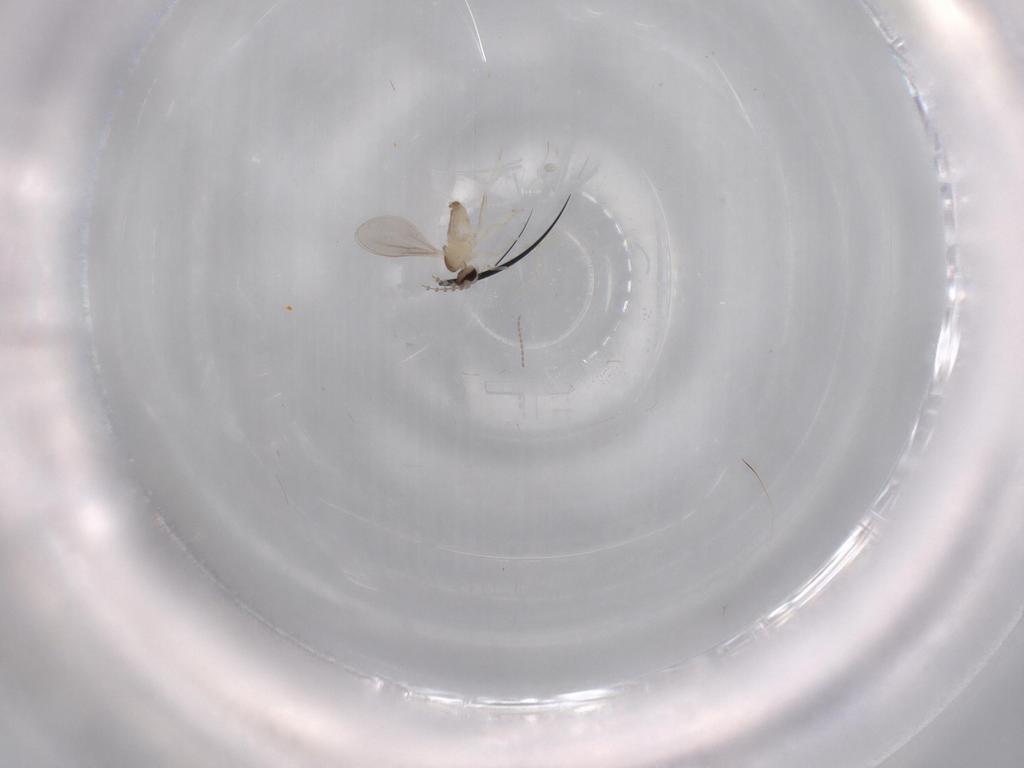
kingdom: Animalia
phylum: Arthropoda
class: Insecta
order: Diptera
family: Cecidomyiidae
